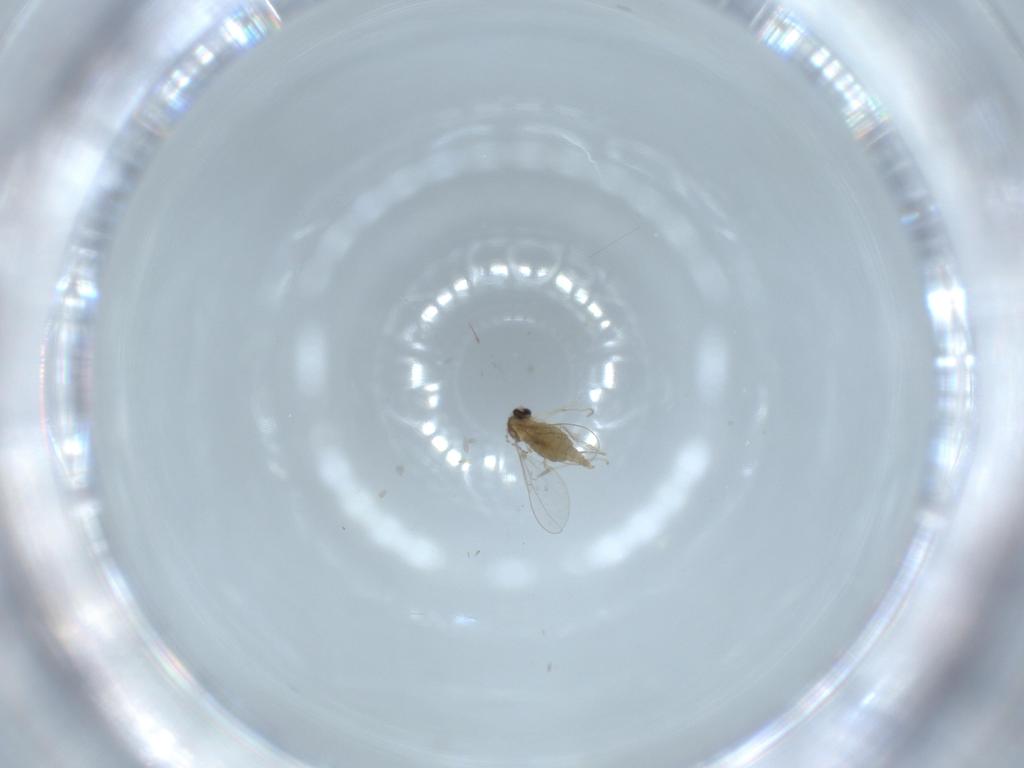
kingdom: Animalia
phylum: Arthropoda
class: Insecta
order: Diptera
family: Cecidomyiidae
